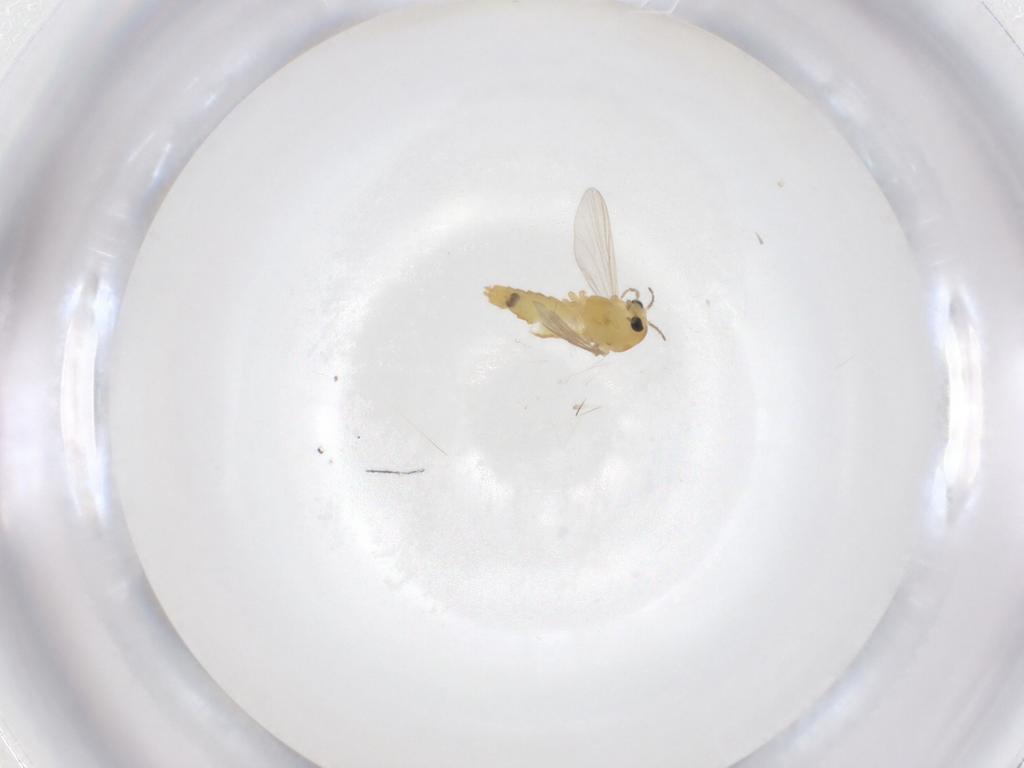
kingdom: Animalia
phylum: Arthropoda
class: Insecta
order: Diptera
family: Chironomidae
